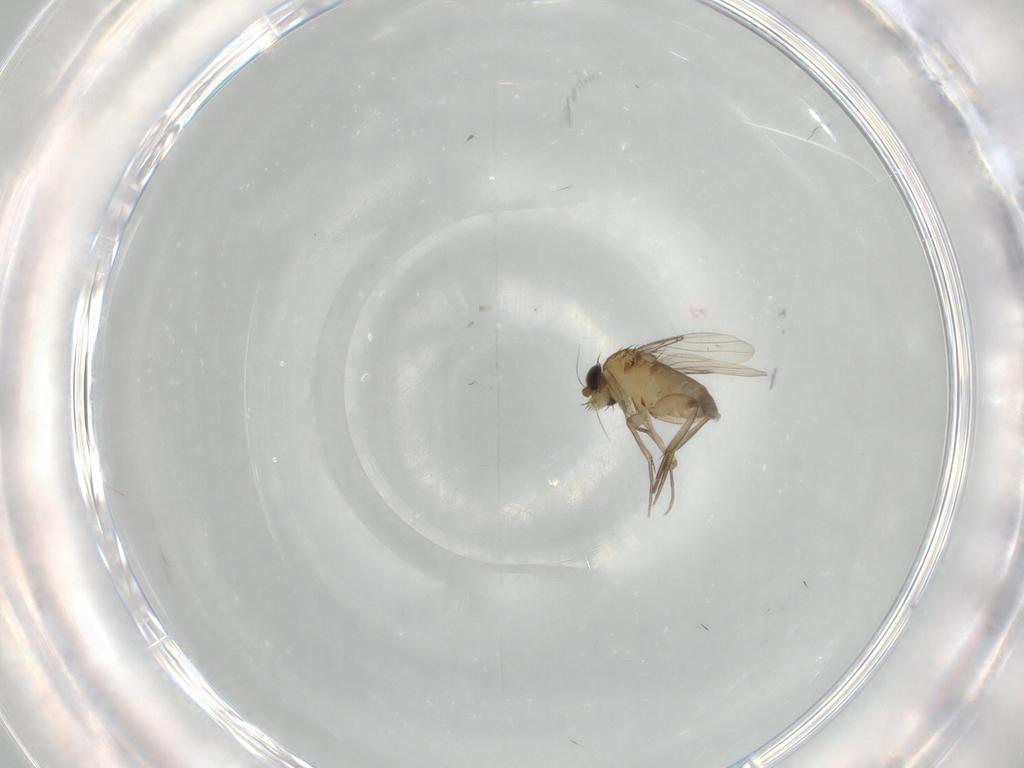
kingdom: Animalia
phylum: Arthropoda
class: Insecta
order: Diptera
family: Phoridae
